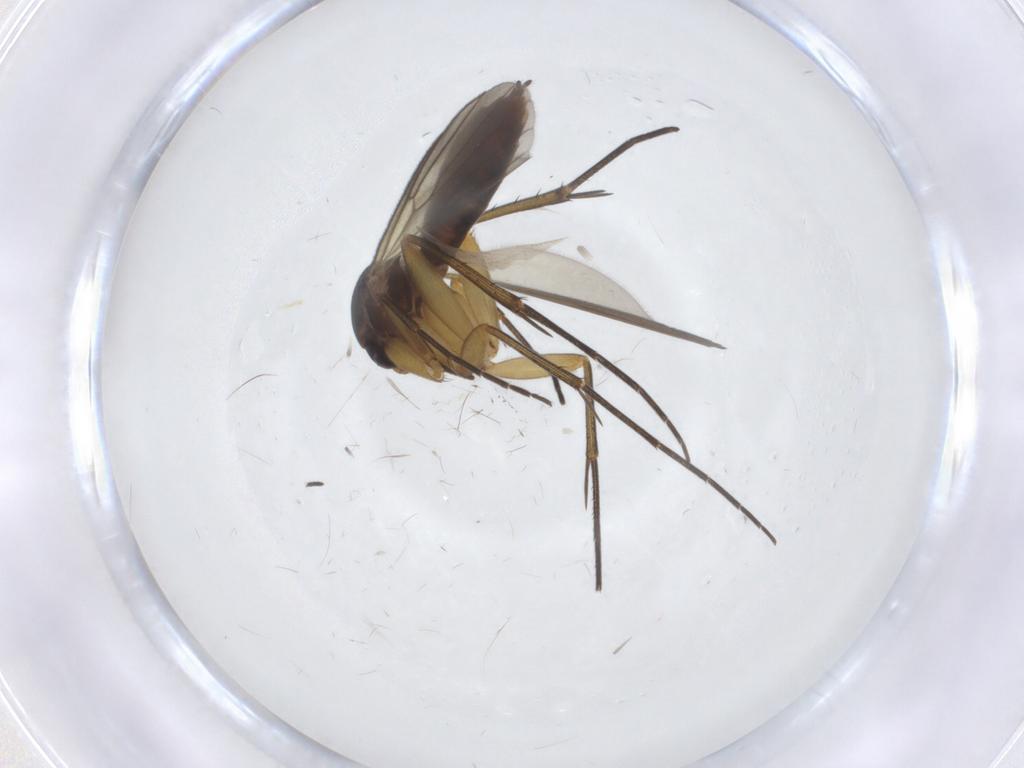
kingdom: Animalia
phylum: Arthropoda
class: Insecta
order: Diptera
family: Mycetophilidae
